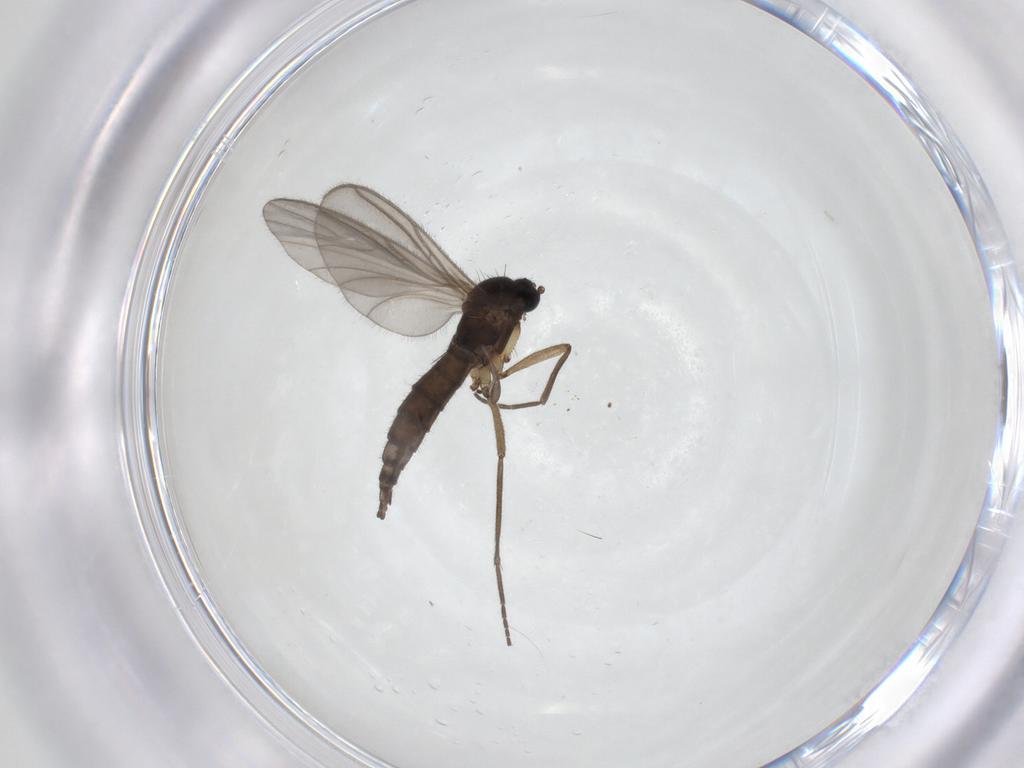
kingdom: Animalia
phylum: Arthropoda
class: Insecta
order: Diptera
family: Sciaridae
